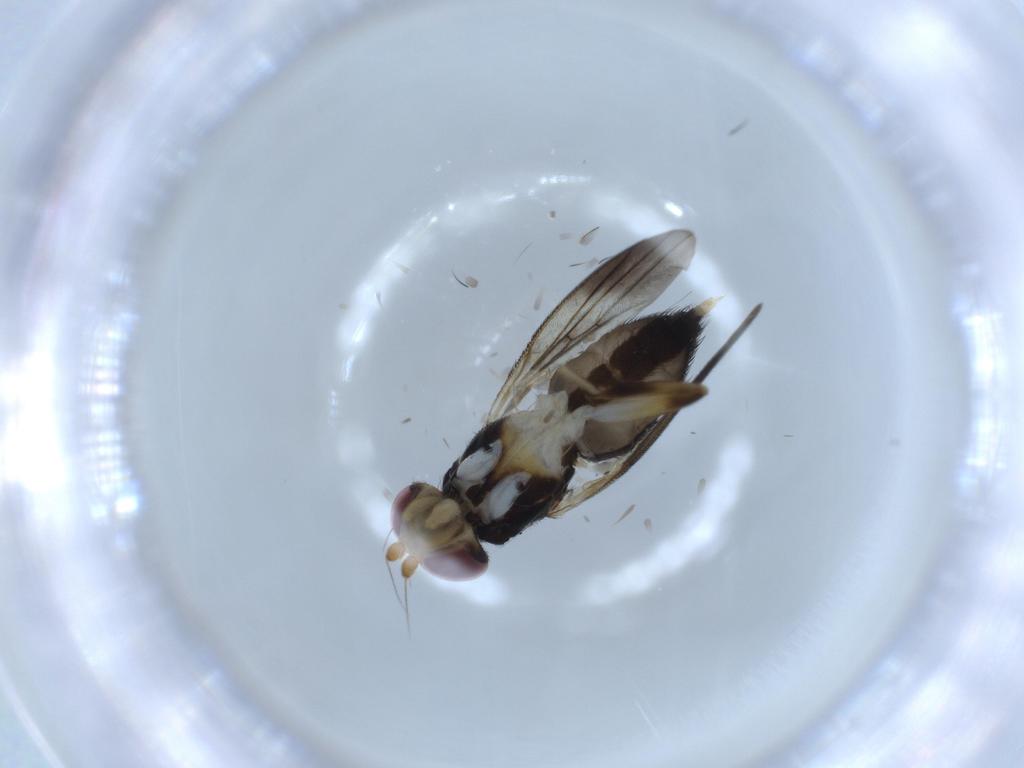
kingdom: Animalia
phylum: Arthropoda
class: Insecta
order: Diptera
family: Clusiidae
